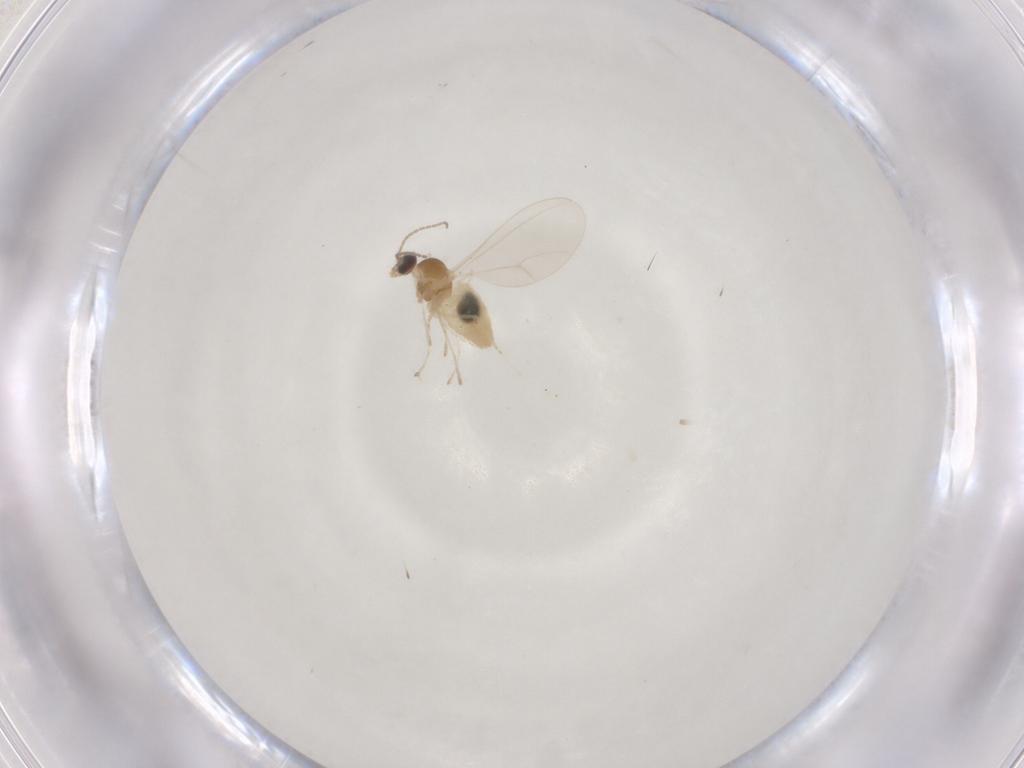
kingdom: Animalia
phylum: Arthropoda
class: Insecta
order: Diptera
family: Cecidomyiidae
